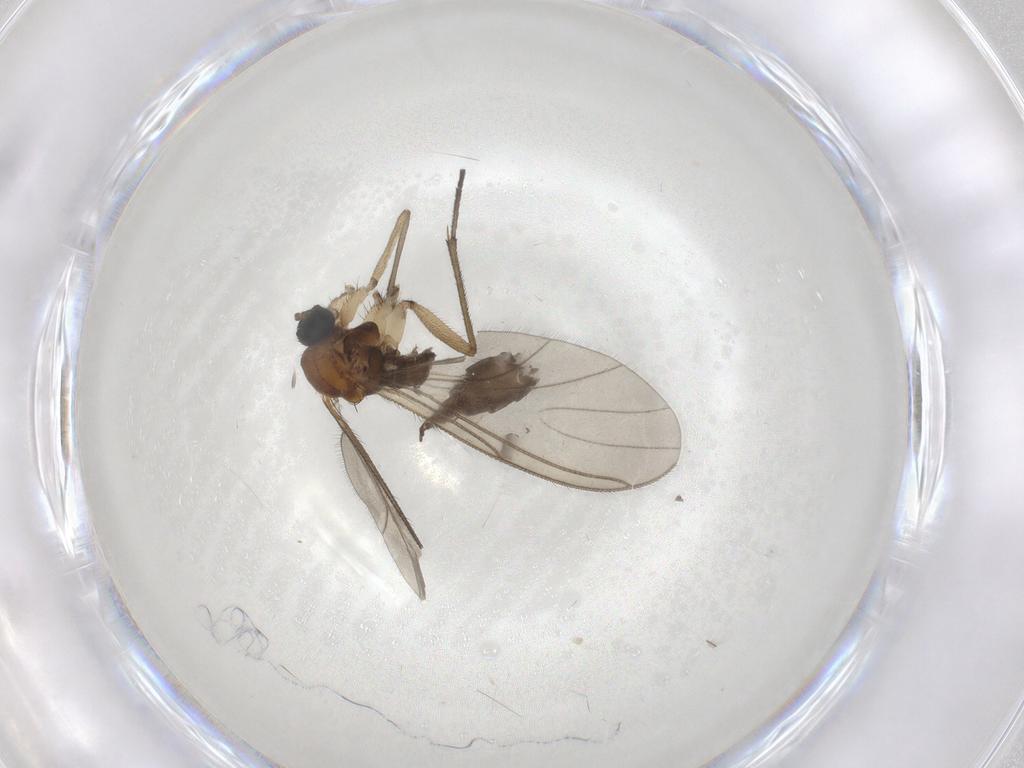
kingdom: Animalia
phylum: Arthropoda
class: Insecta
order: Diptera
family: Sciaridae
